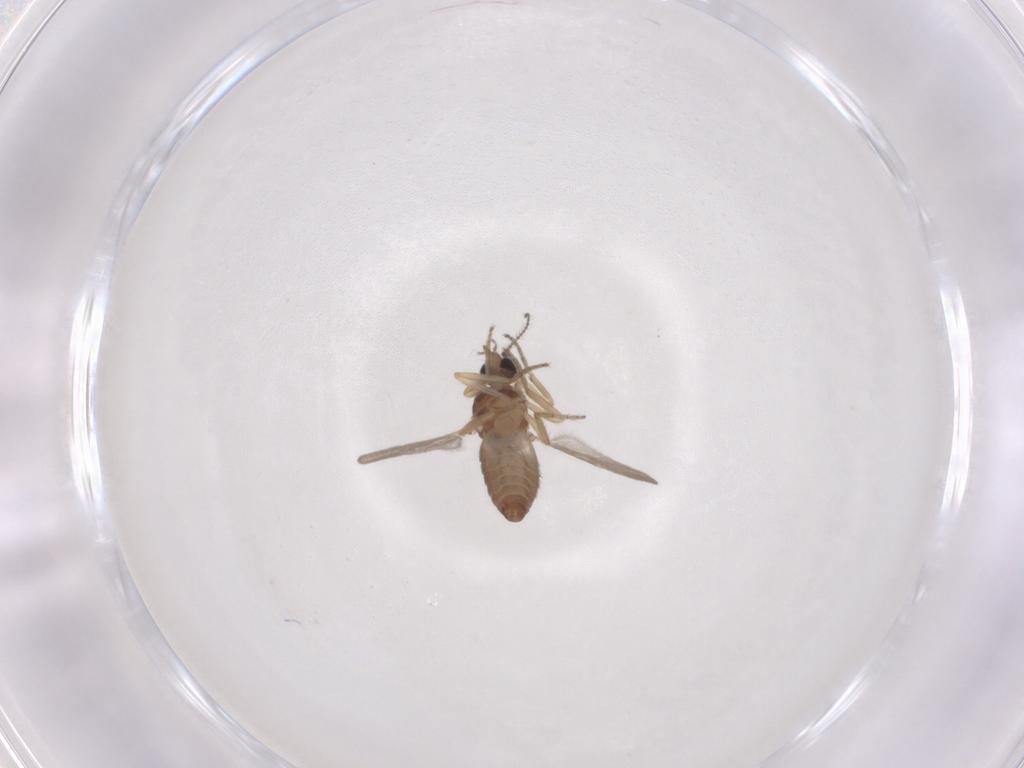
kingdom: Animalia
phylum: Arthropoda
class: Insecta
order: Diptera
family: Ceratopogonidae
